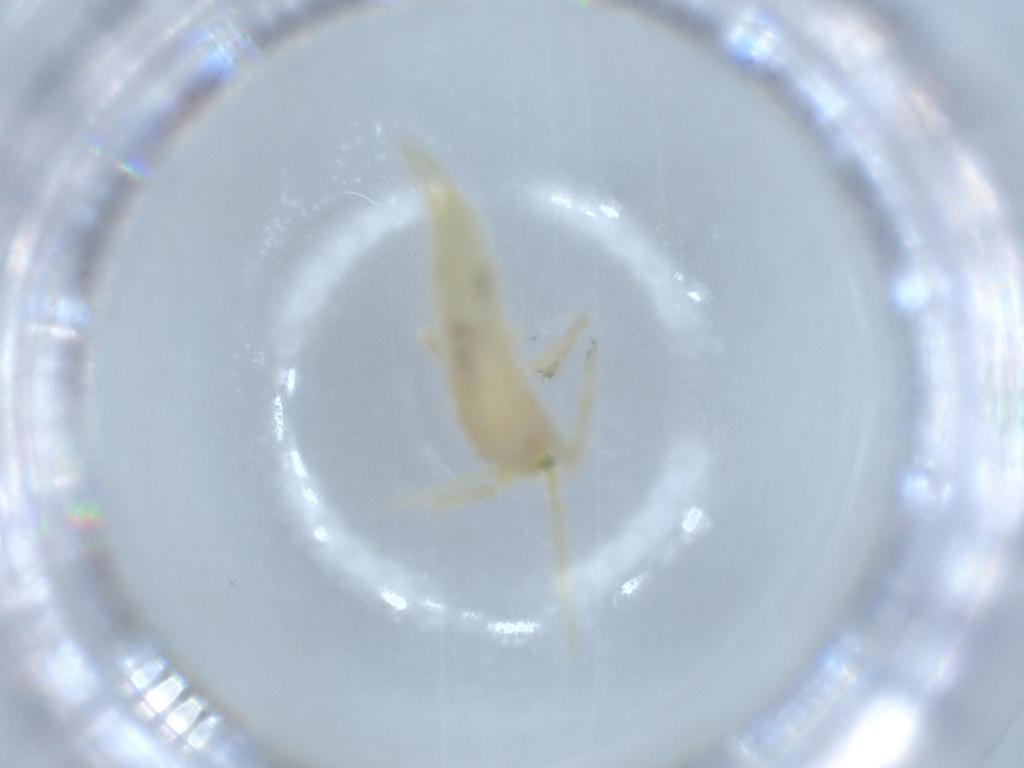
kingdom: Animalia
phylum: Arthropoda
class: Insecta
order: Orthoptera
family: Trigonidiidae
